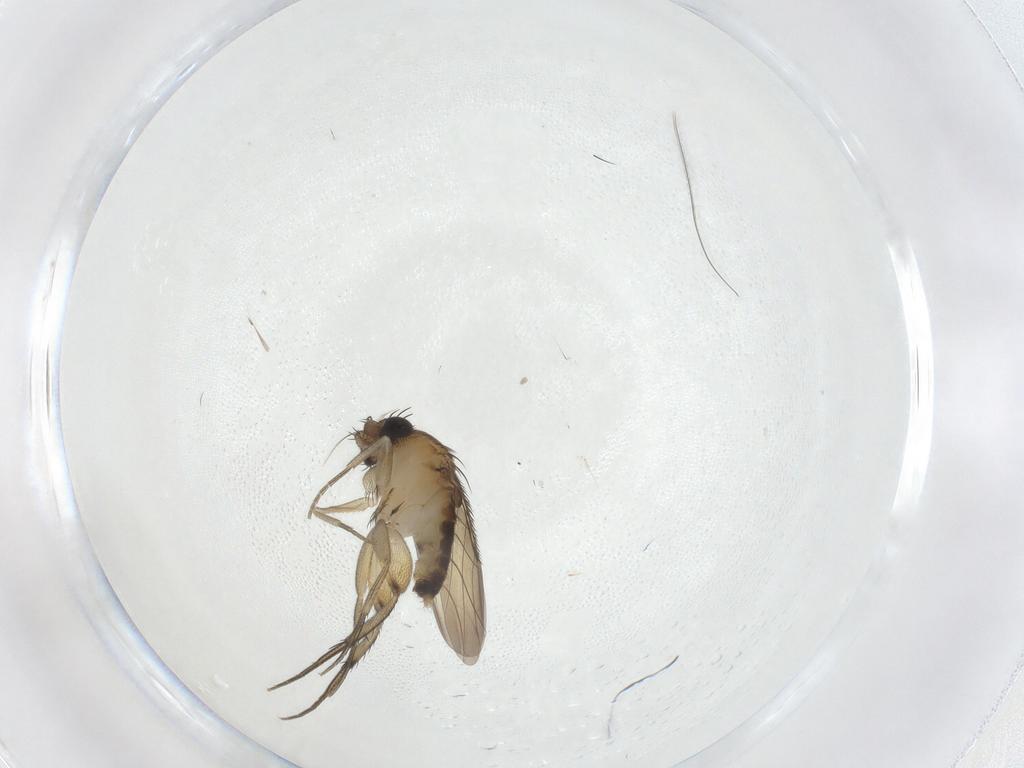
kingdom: Animalia
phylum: Arthropoda
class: Insecta
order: Diptera
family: Phoridae
